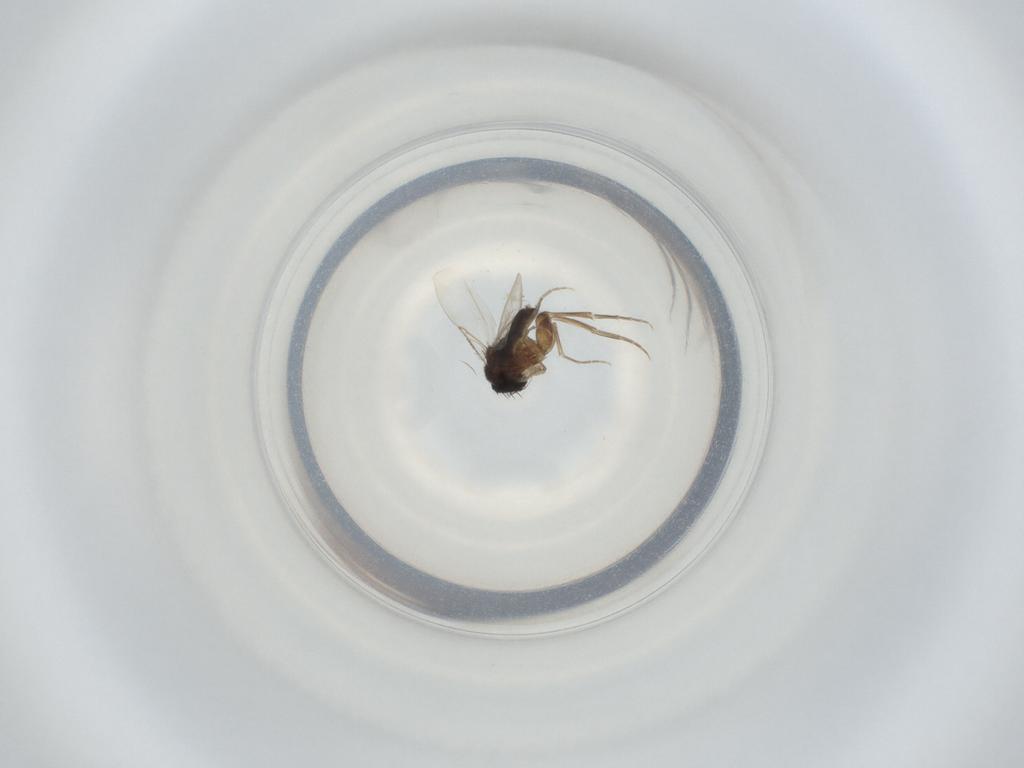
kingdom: Animalia
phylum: Arthropoda
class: Insecta
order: Diptera
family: Phoridae
